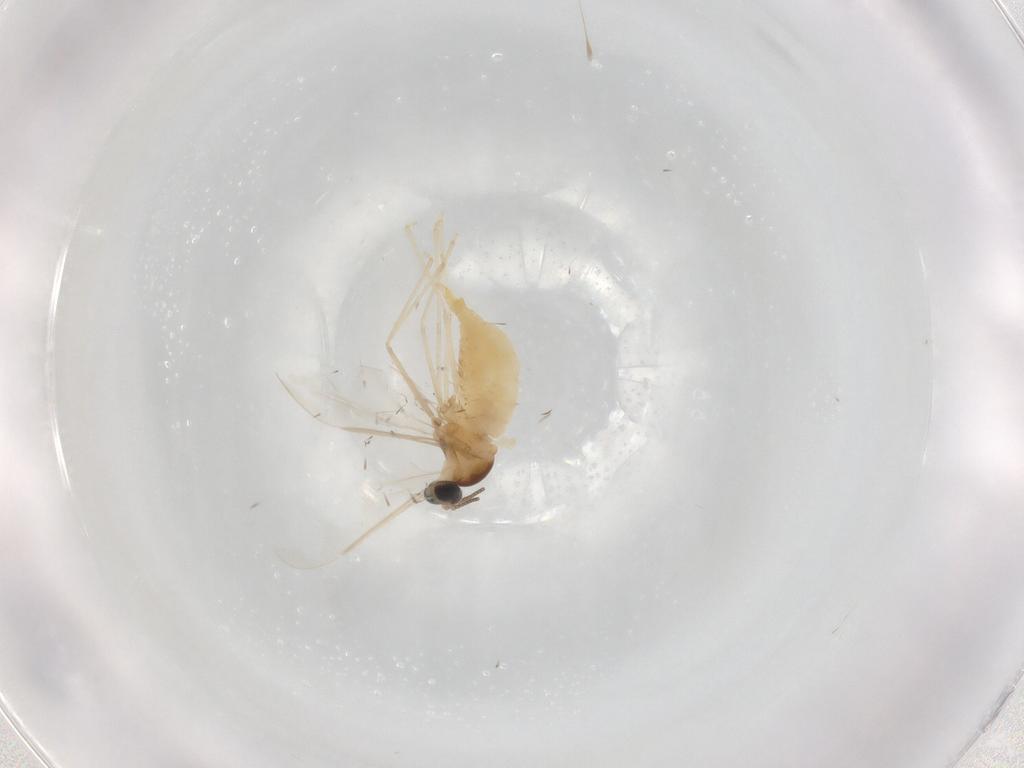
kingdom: Animalia
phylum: Arthropoda
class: Insecta
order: Diptera
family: Cecidomyiidae
